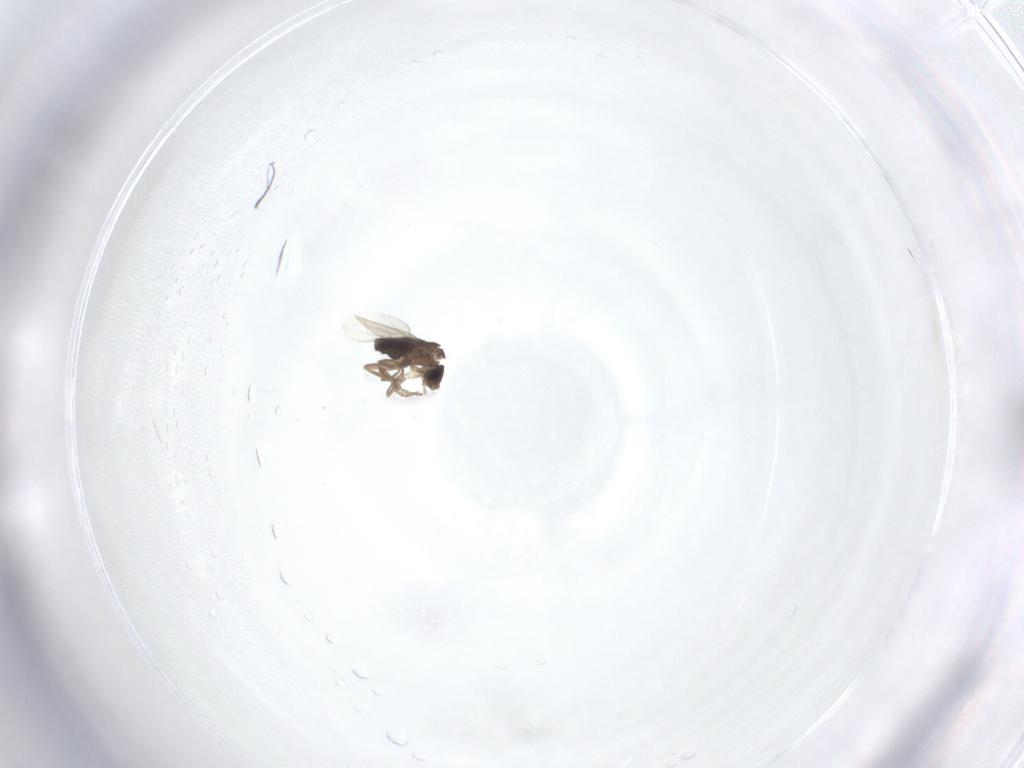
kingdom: Animalia
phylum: Arthropoda
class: Insecta
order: Diptera
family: Phoridae
